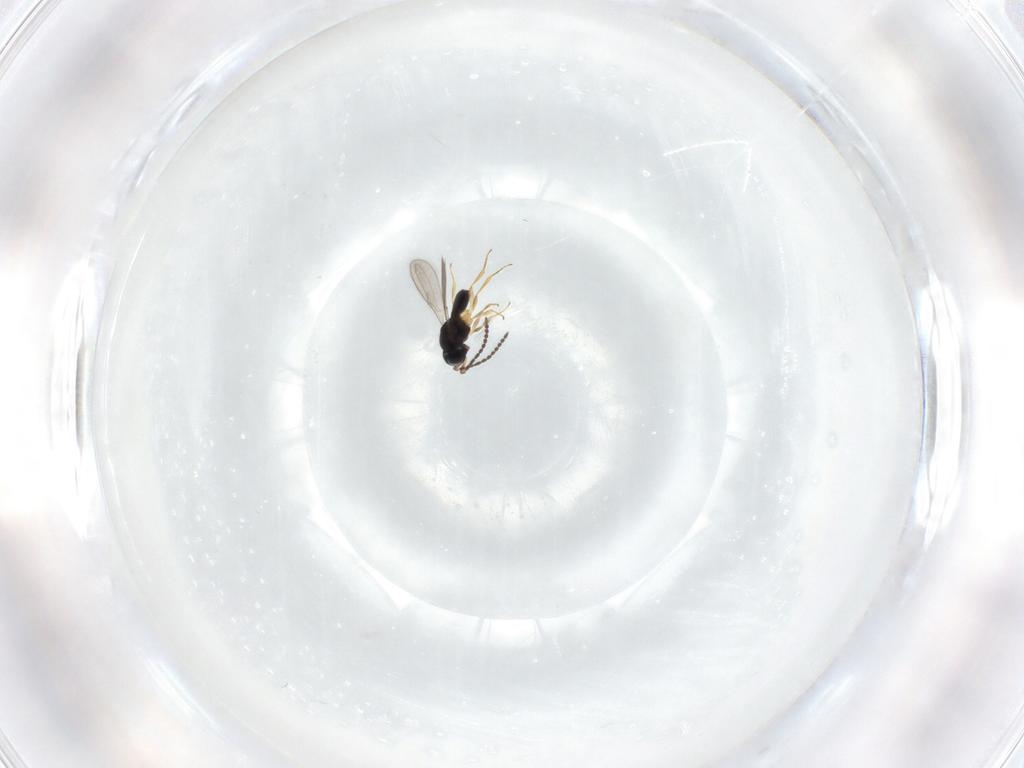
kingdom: Animalia
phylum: Arthropoda
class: Insecta
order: Hymenoptera
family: Scelionidae
